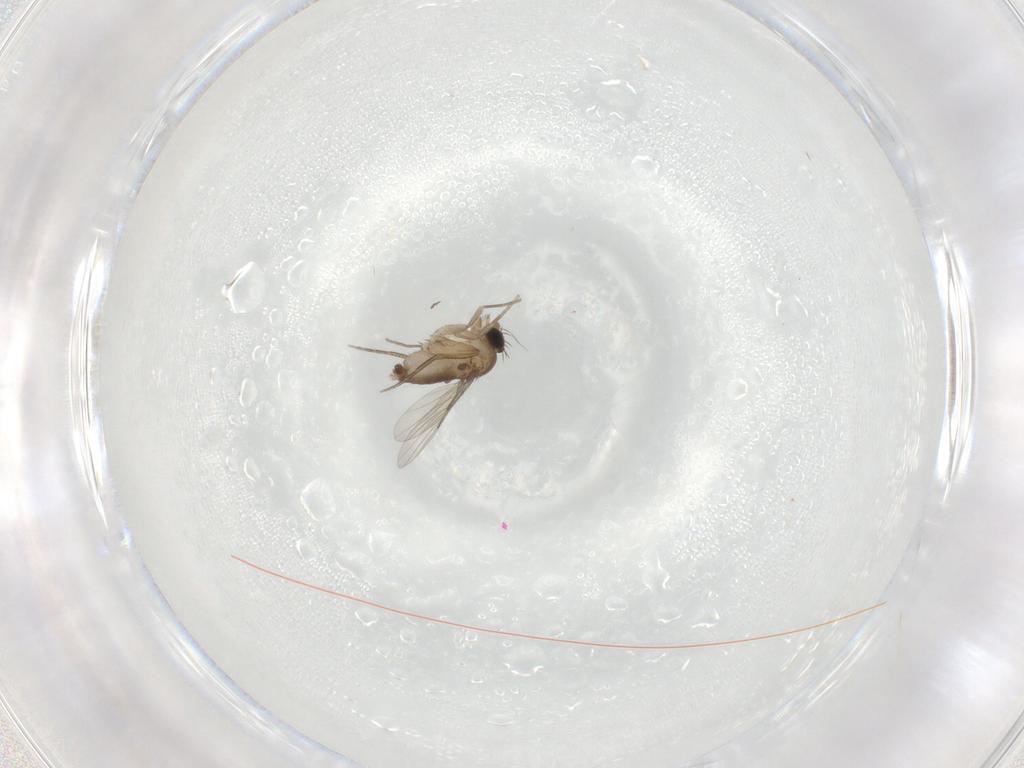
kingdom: Animalia
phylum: Arthropoda
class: Insecta
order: Diptera
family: Phoridae
